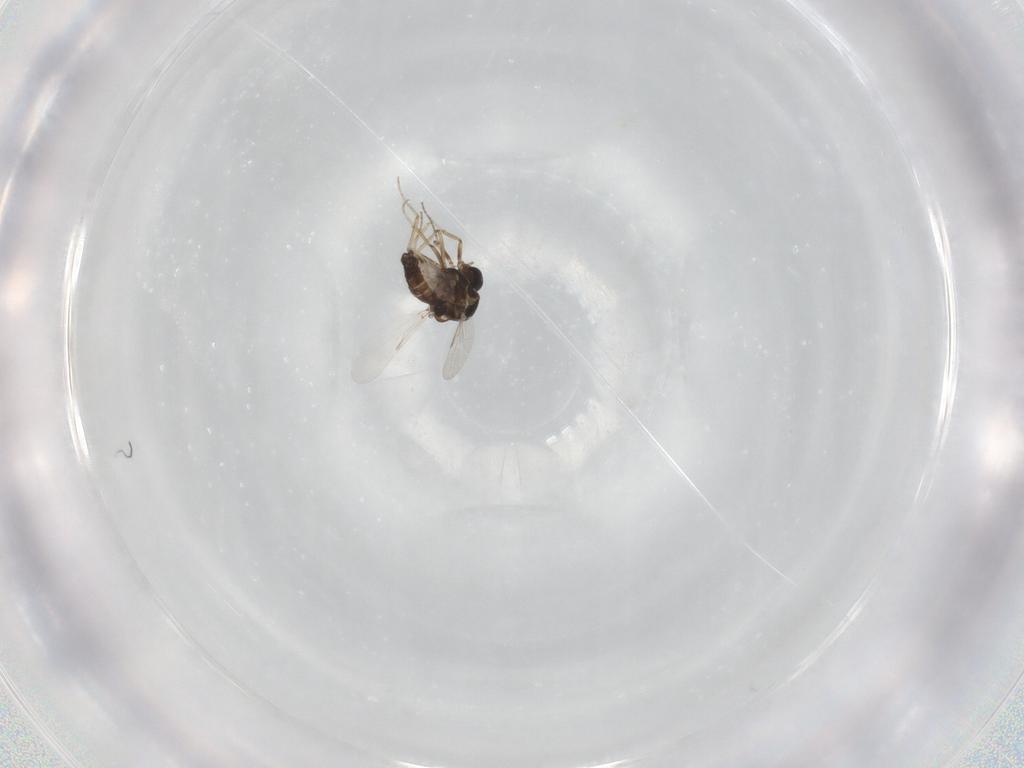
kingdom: Animalia
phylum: Arthropoda
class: Insecta
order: Diptera
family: Ceratopogonidae
